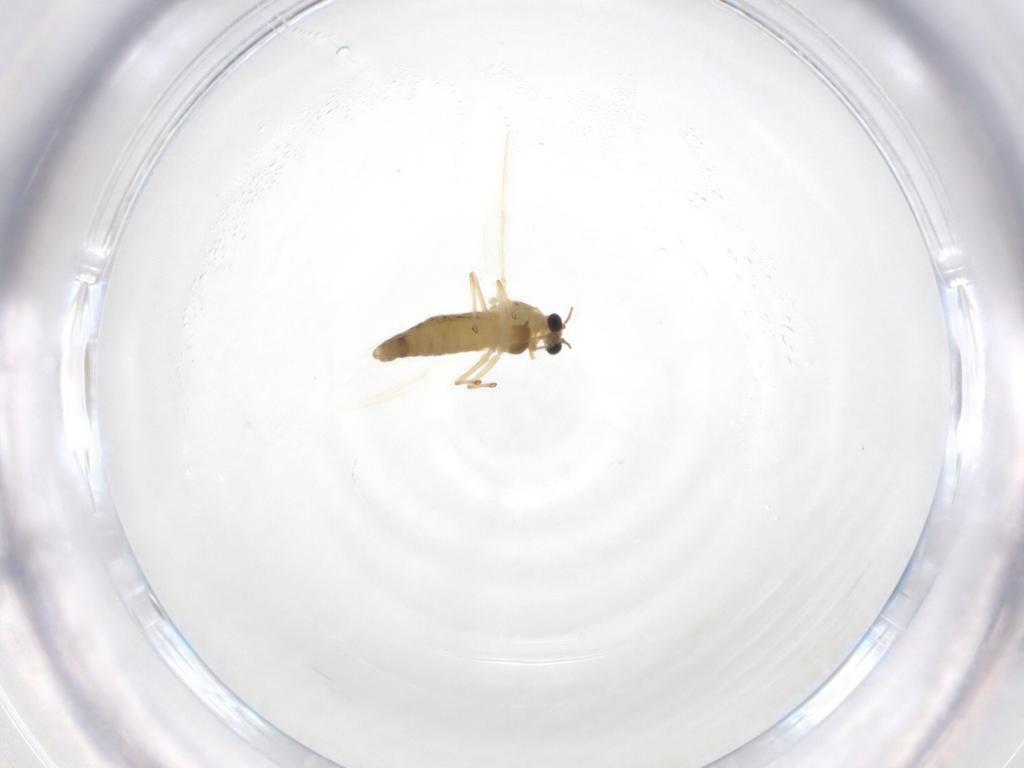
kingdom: Animalia
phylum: Arthropoda
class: Insecta
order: Diptera
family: Chironomidae
